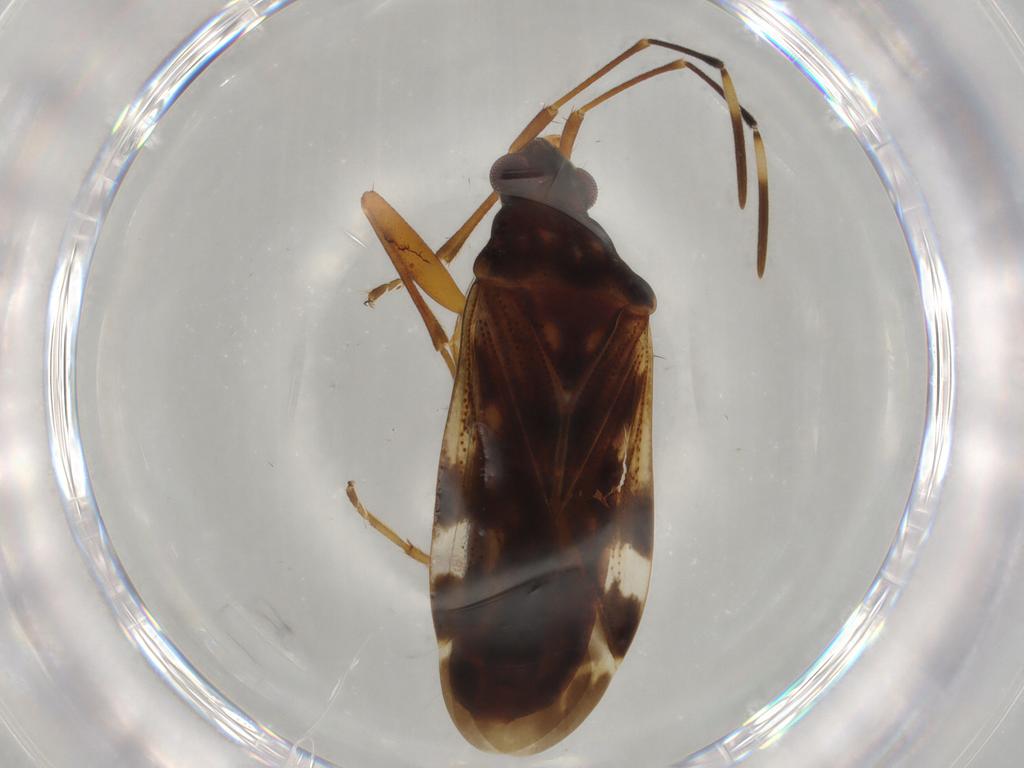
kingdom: Animalia
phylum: Arthropoda
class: Insecta
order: Hemiptera
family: Rhyparochromidae
